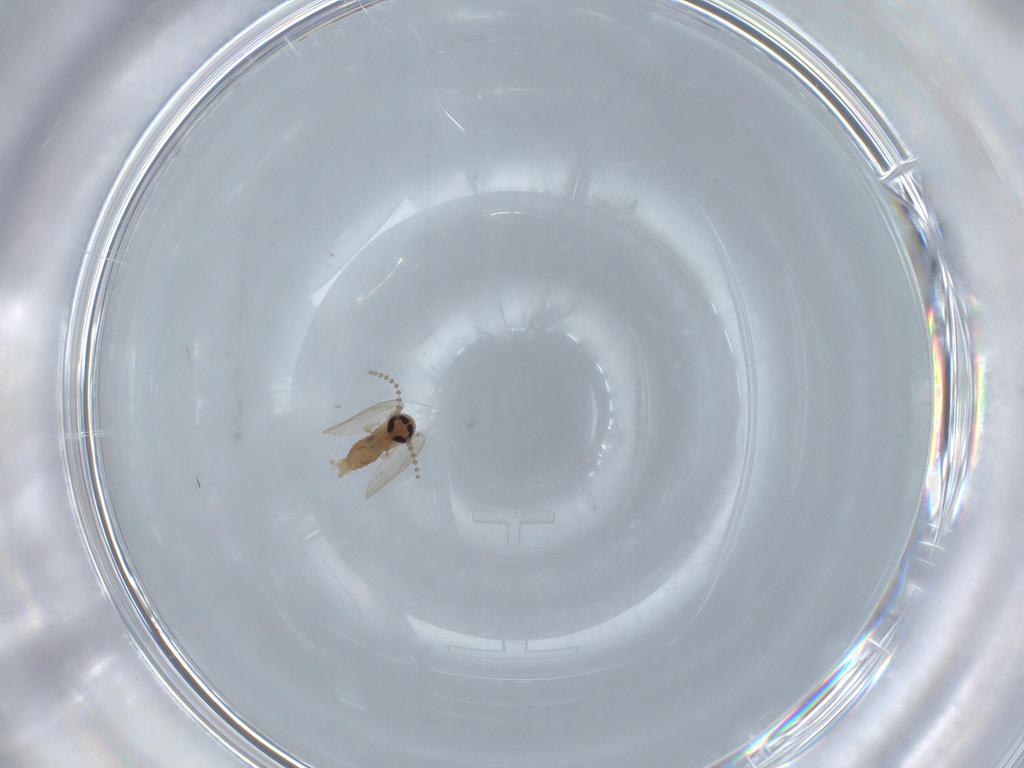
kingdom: Animalia
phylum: Arthropoda
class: Insecta
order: Diptera
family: Psychodidae
